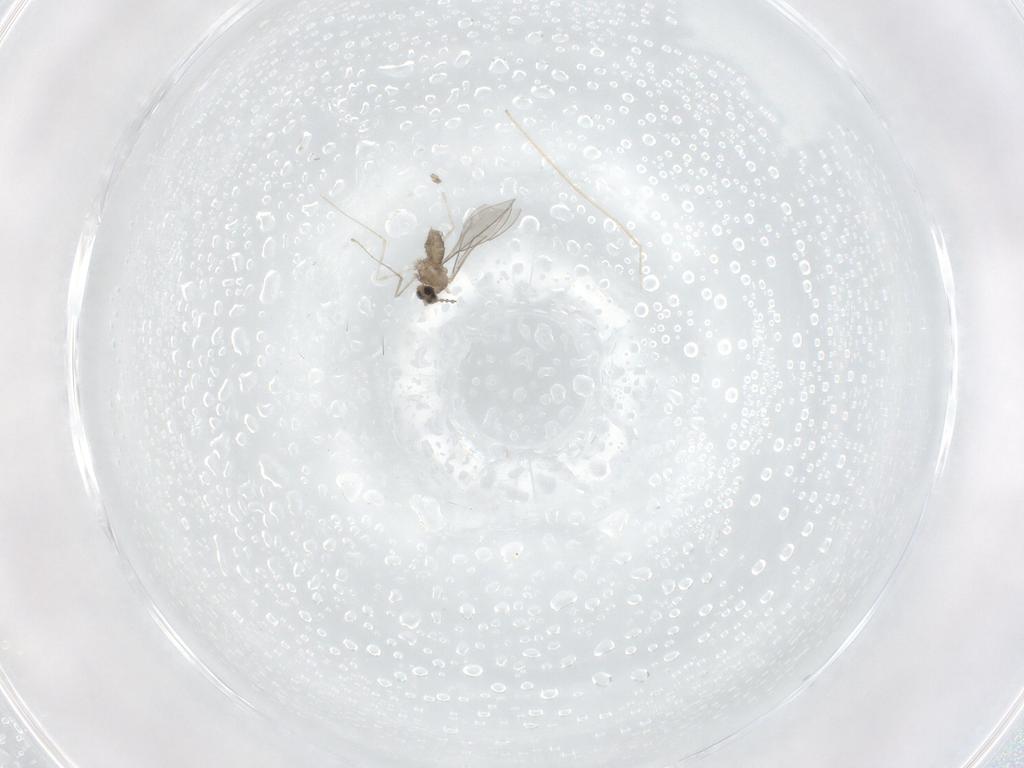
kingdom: Animalia
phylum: Arthropoda
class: Insecta
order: Diptera
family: Cecidomyiidae
